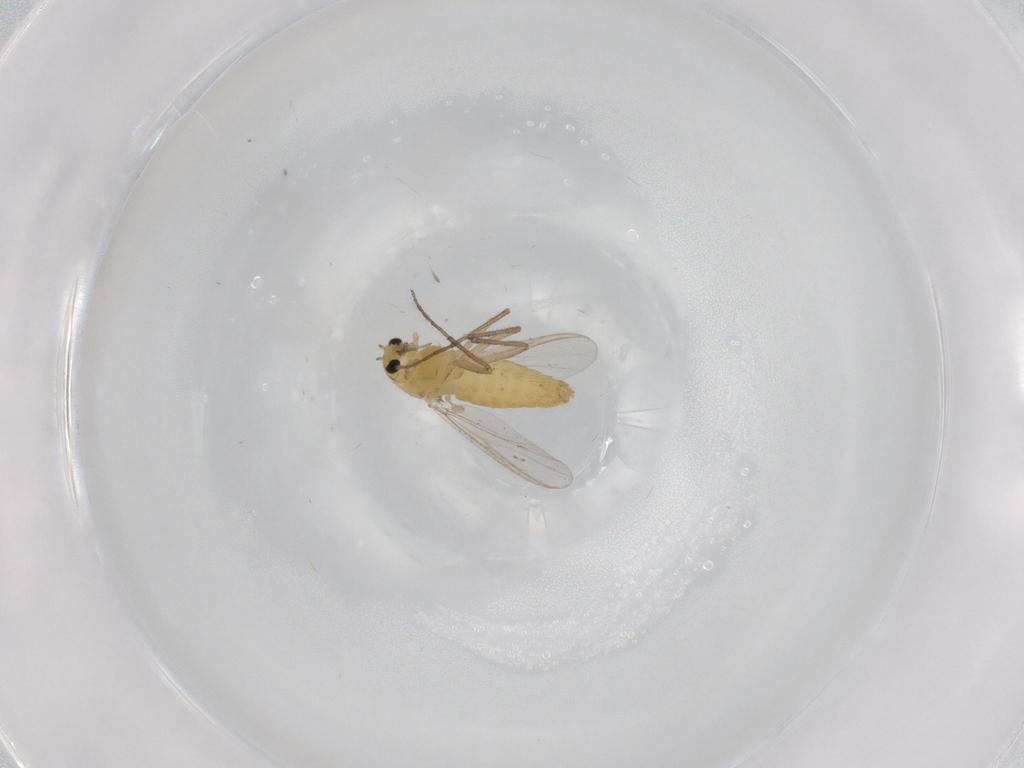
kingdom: Animalia
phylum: Arthropoda
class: Insecta
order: Diptera
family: Chironomidae
